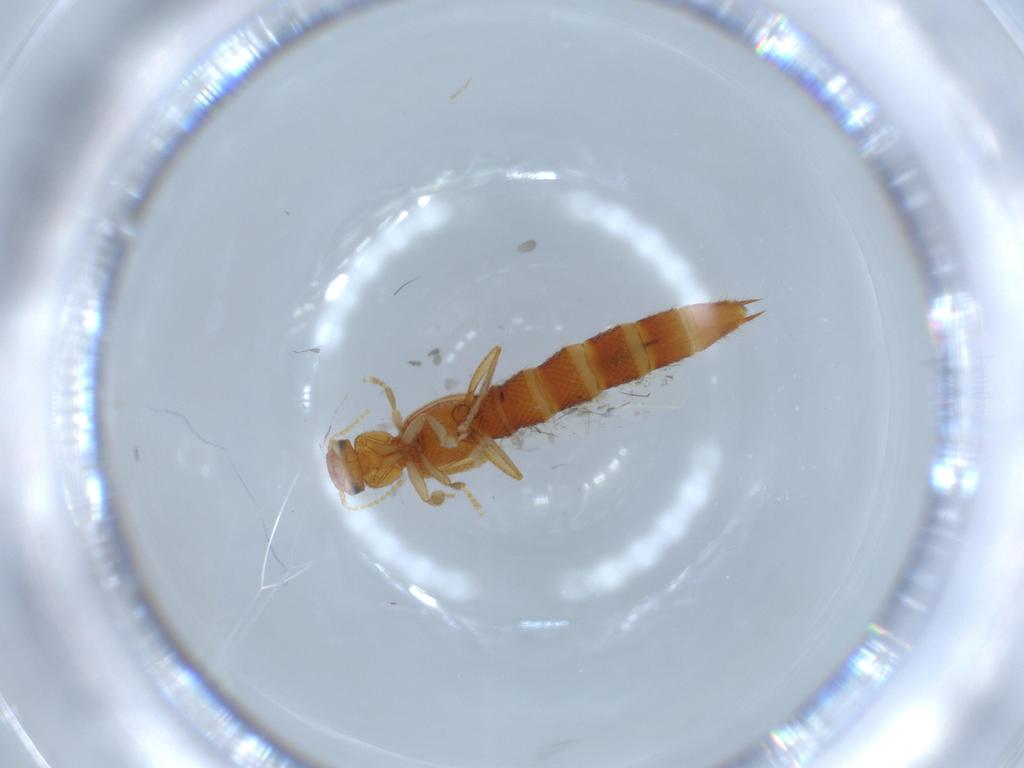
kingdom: Animalia
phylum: Arthropoda
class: Insecta
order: Coleoptera
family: Staphylinidae
